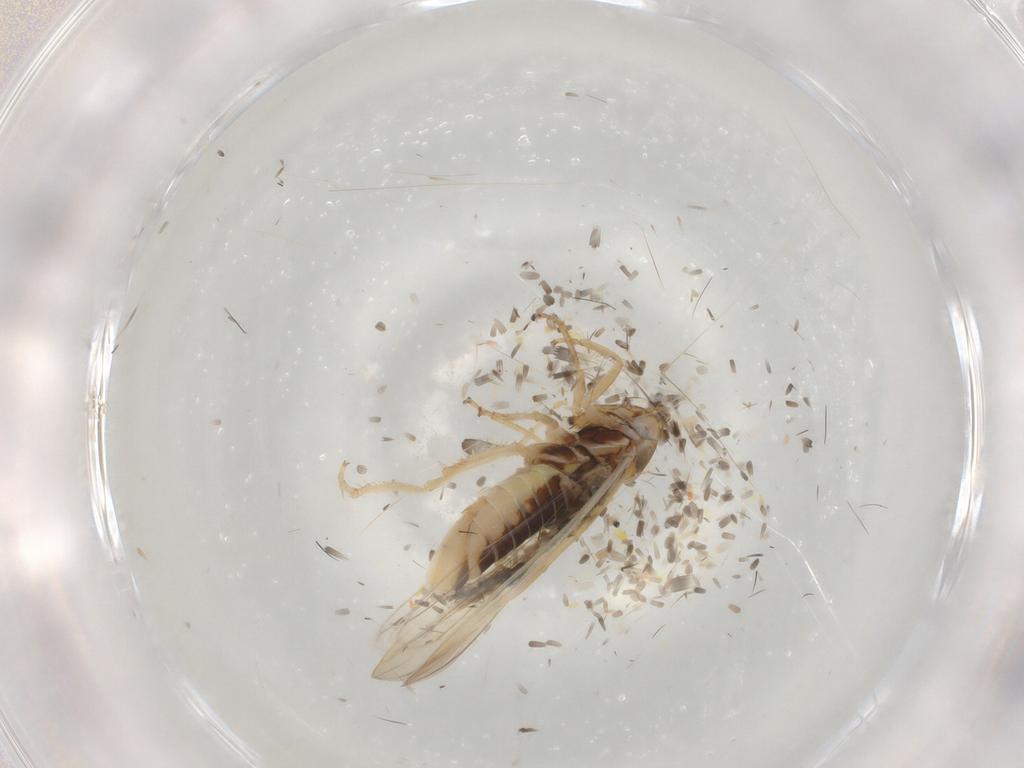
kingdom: Animalia
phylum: Arthropoda
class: Insecta
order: Hemiptera
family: Cicadellidae
